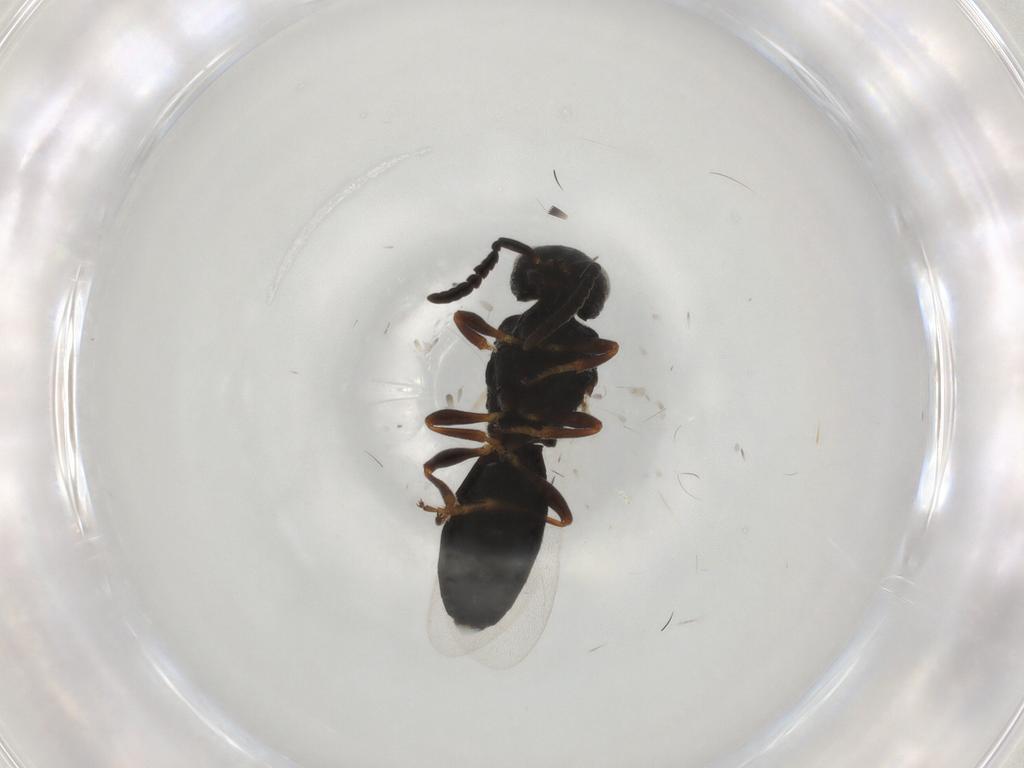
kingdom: Animalia
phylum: Arthropoda
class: Insecta
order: Hymenoptera
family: Scelionidae
